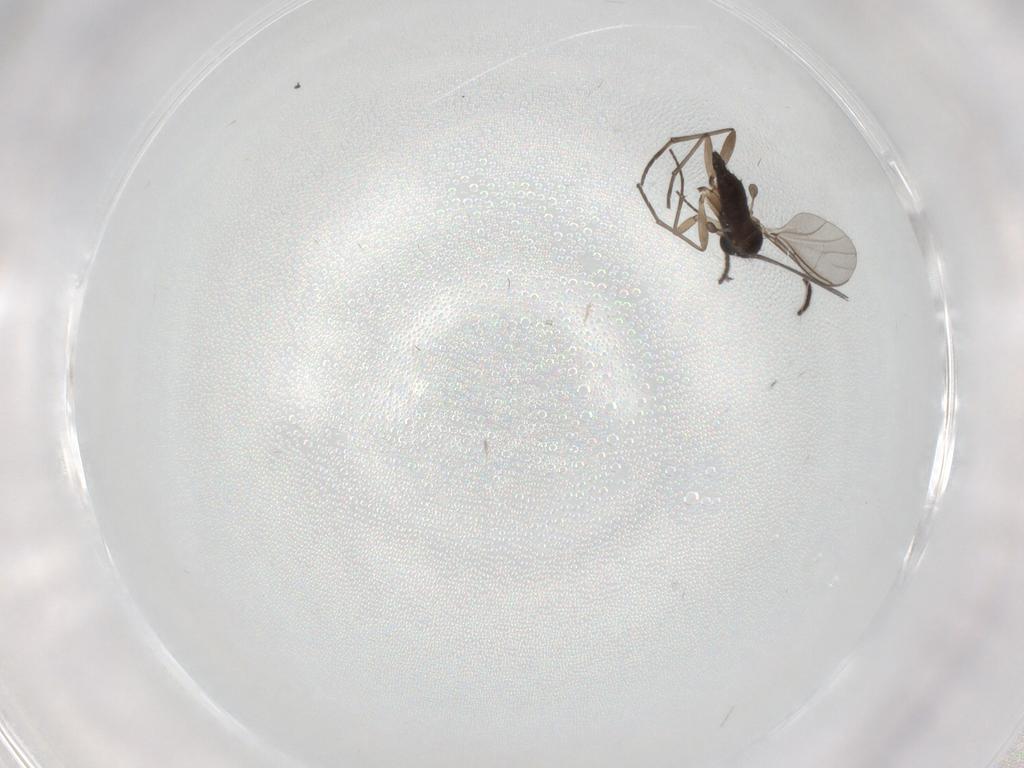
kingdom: Animalia
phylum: Arthropoda
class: Insecta
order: Diptera
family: Sciaridae
